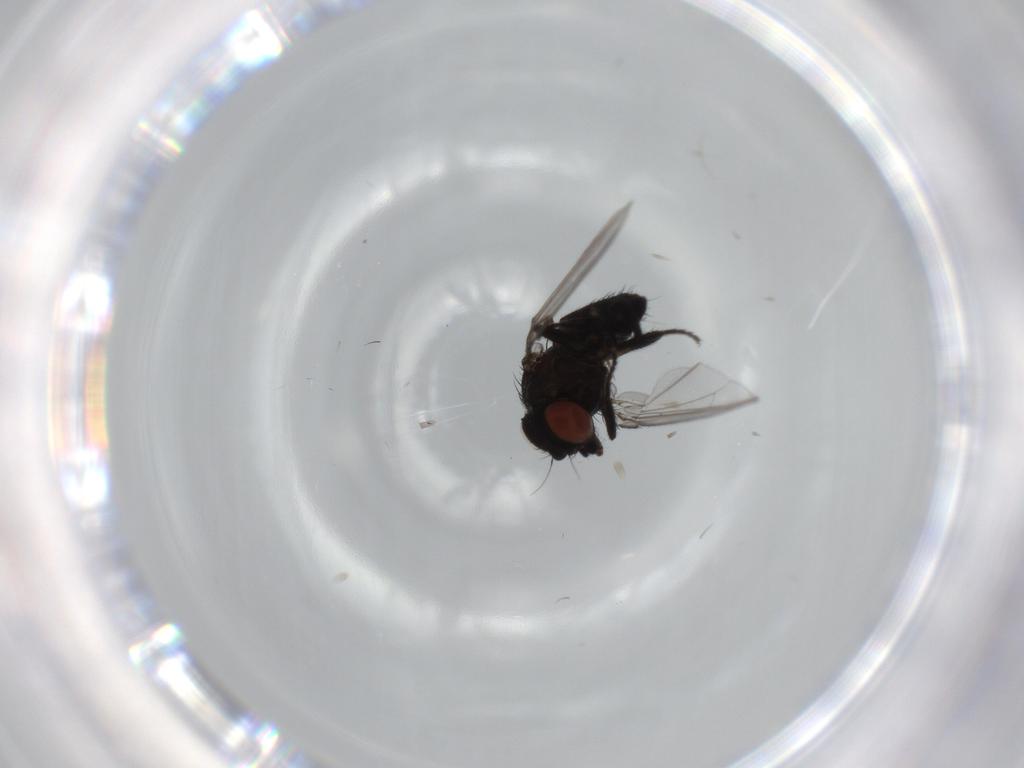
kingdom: Animalia
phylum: Arthropoda
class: Insecta
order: Diptera
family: Milichiidae
